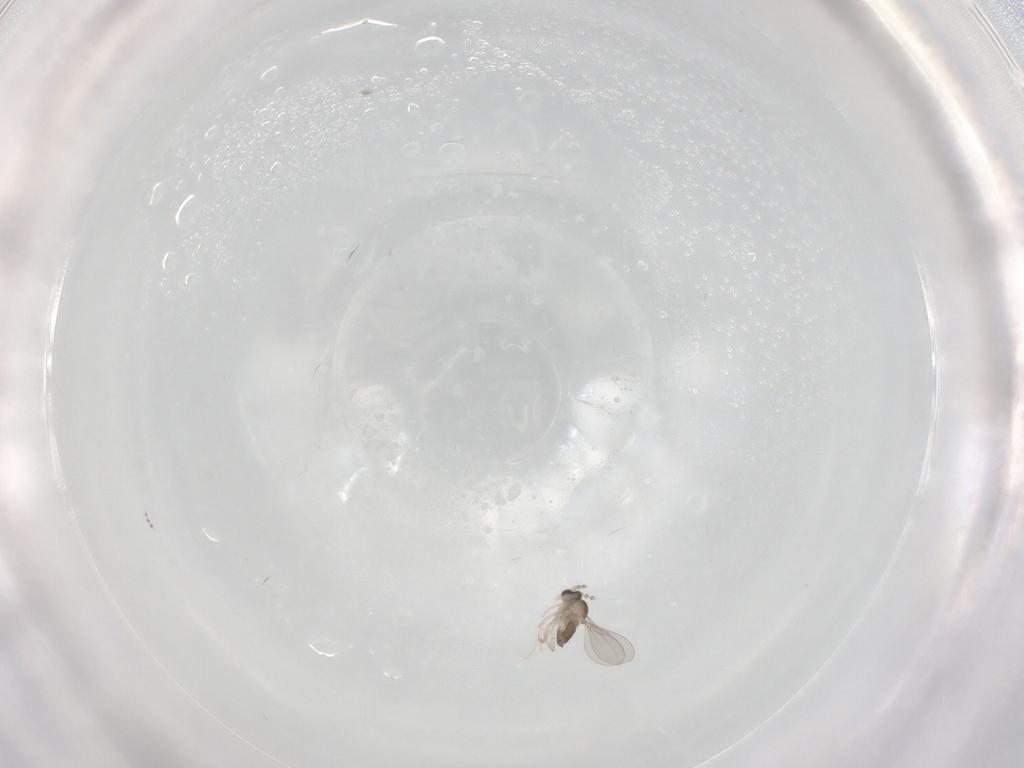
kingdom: Animalia
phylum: Arthropoda
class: Insecta
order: Diptera
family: Cecidomyiidae
